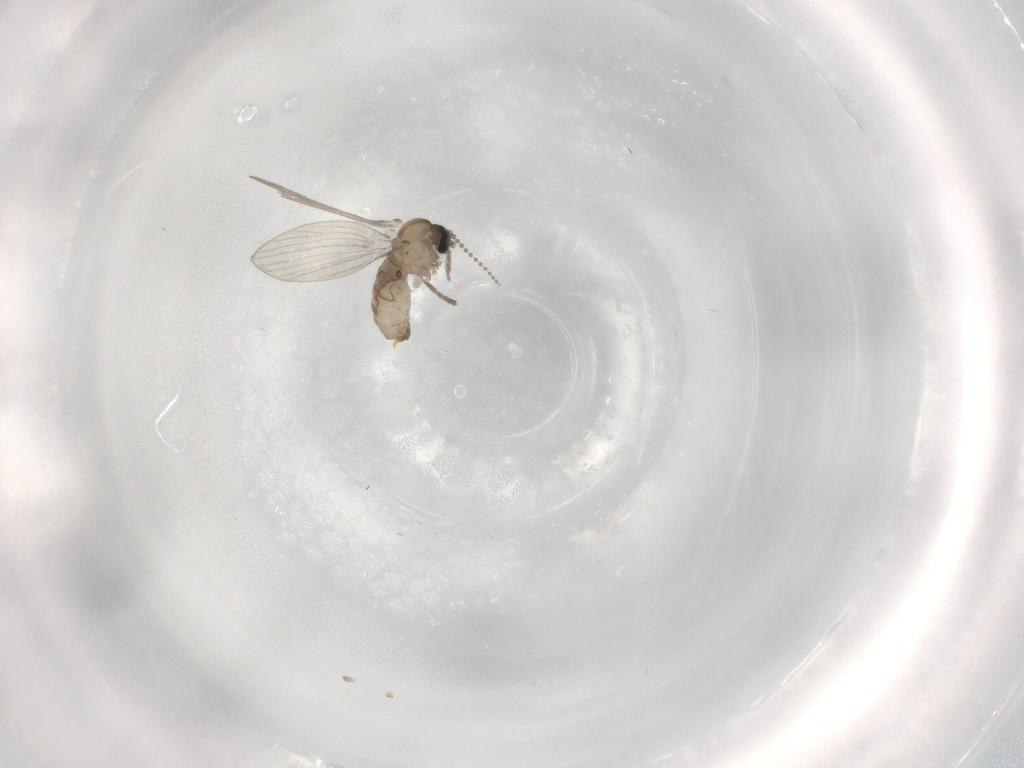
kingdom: Animalia
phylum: Arthropoda
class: Insecta
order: Diptera
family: Psychodidae
